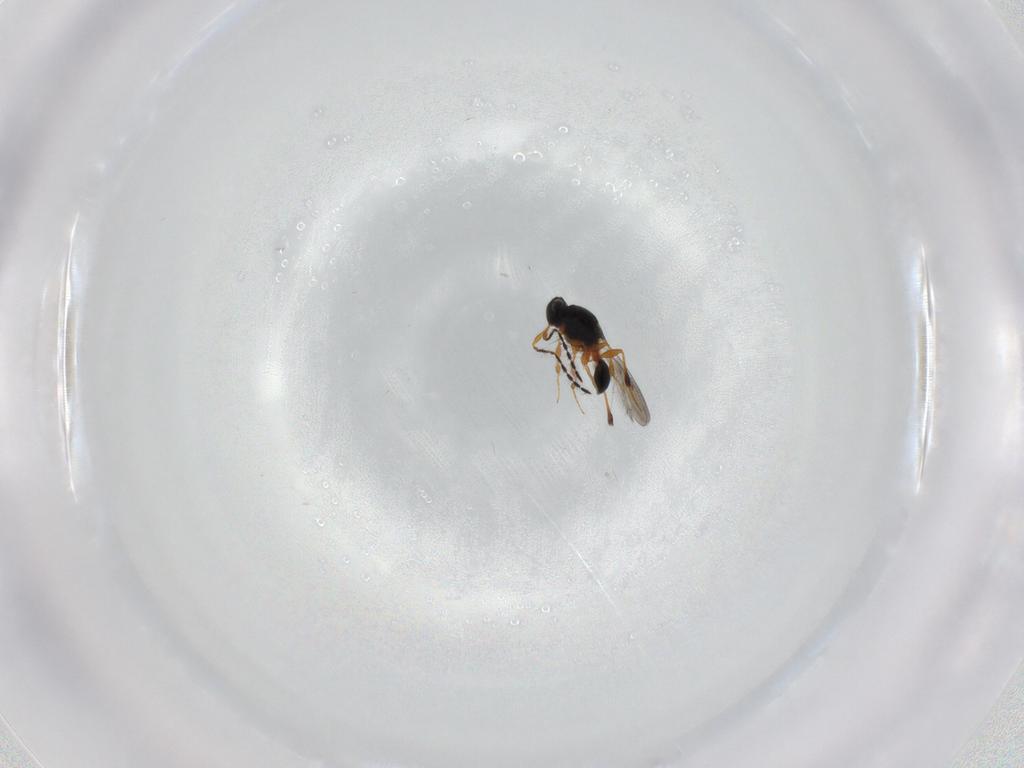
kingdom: Animalia
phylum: Arthropoda
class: Insecta
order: Hymenoptera
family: Platygastridae
